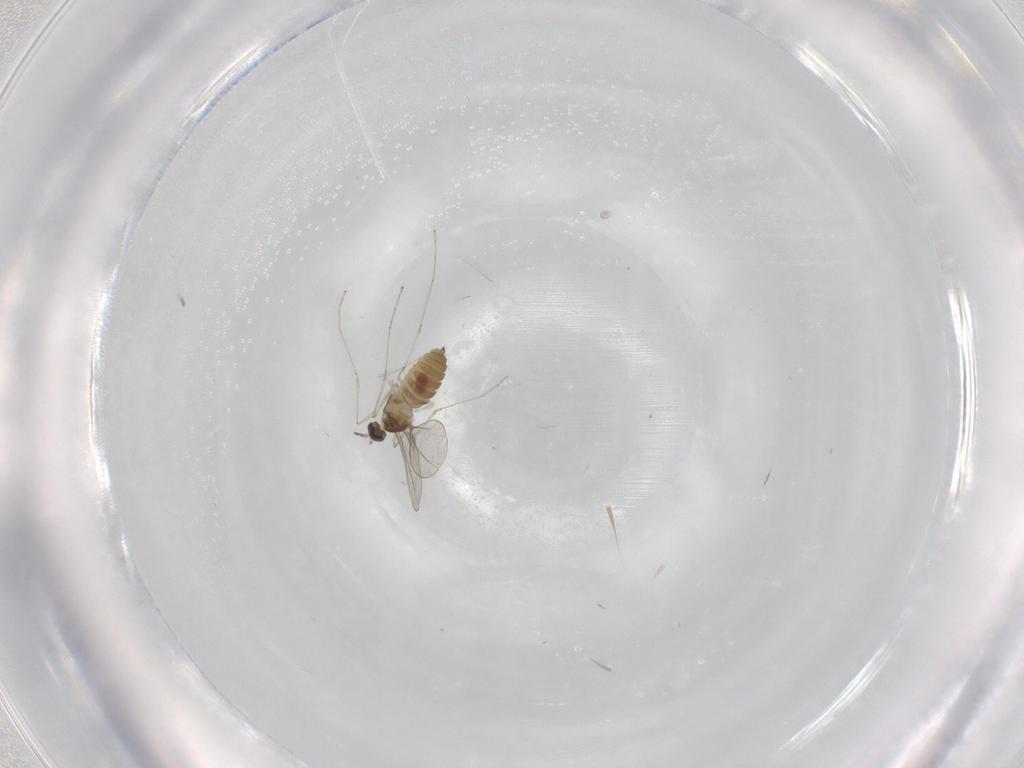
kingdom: Animalia
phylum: Arthropoda
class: Insecta
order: Diptera
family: Cecidomyiidae
